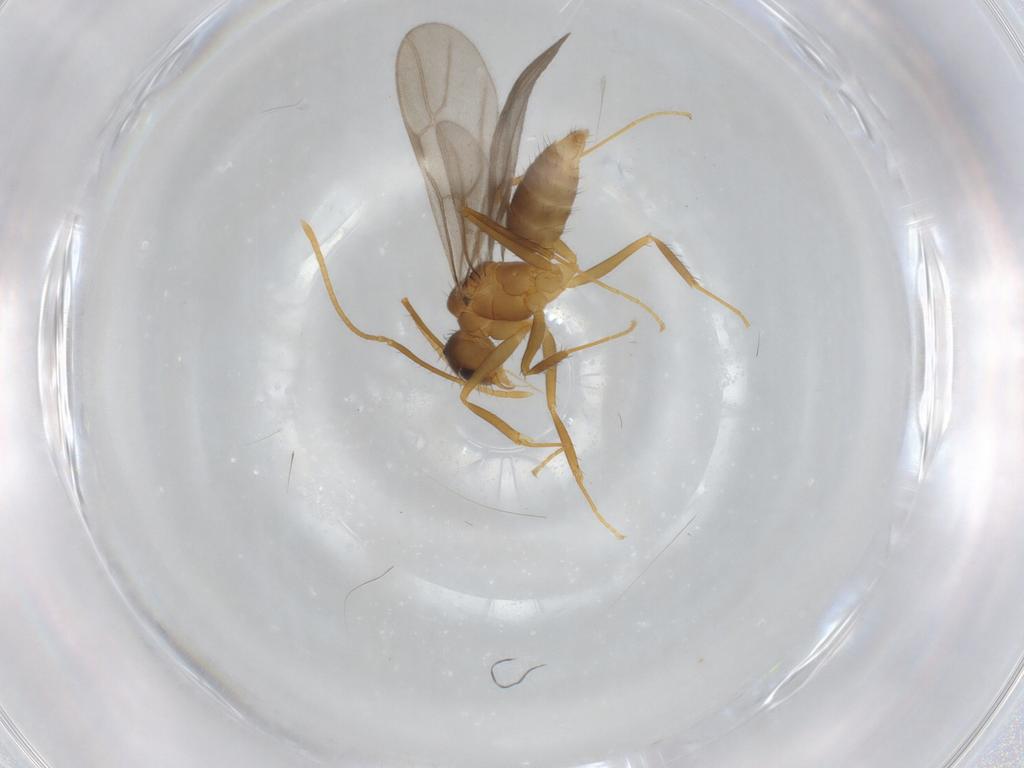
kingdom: Animalia
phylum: Arthropoda
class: Insecta
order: Hymenoptera
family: Formicidae
